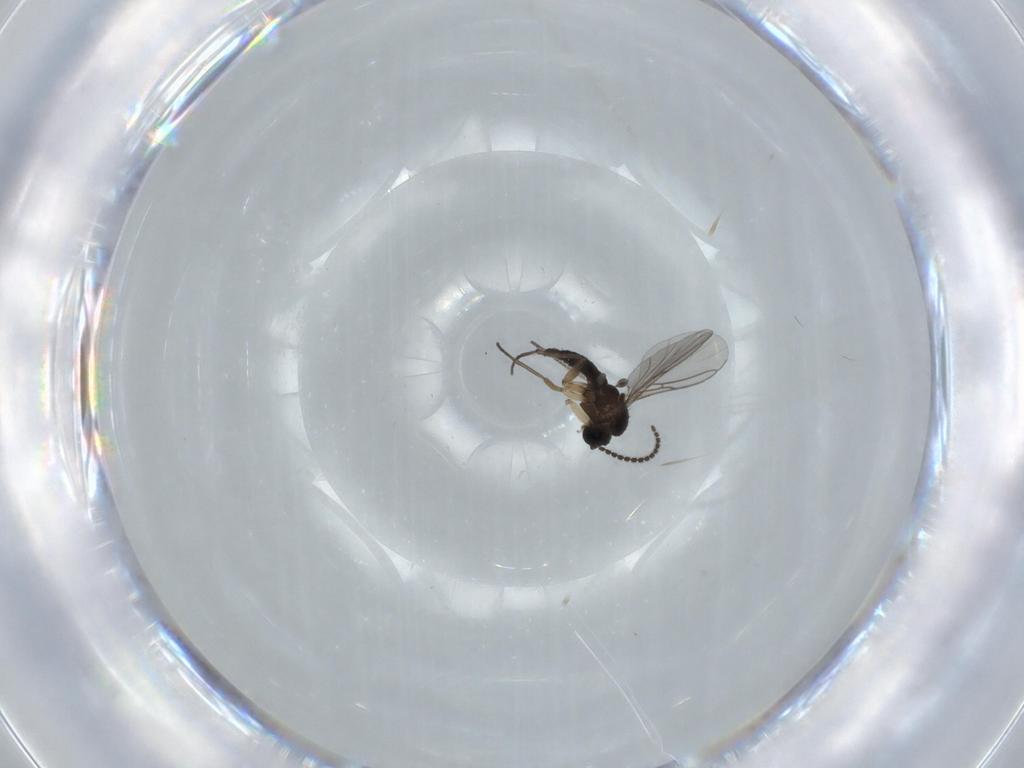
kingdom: Animalia
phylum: Arthropoda
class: Insecta
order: Diptera
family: Sciaridae
